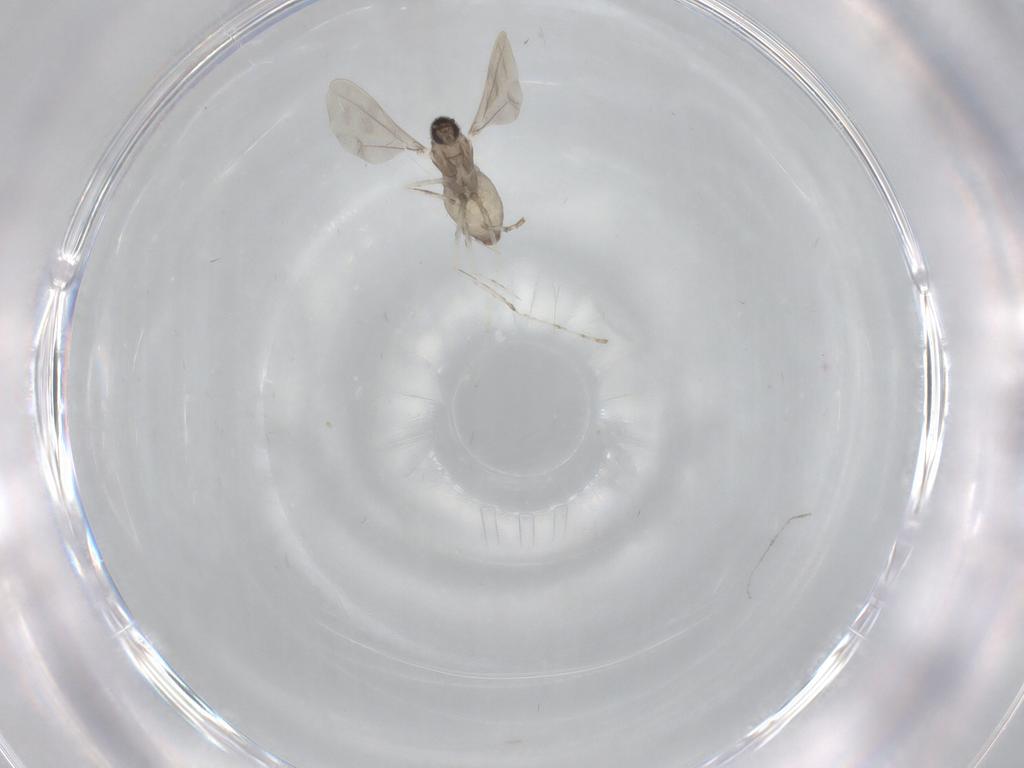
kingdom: Animalia
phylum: Arthropoda
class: Insecta
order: Diptera
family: Cecidomyiidae
